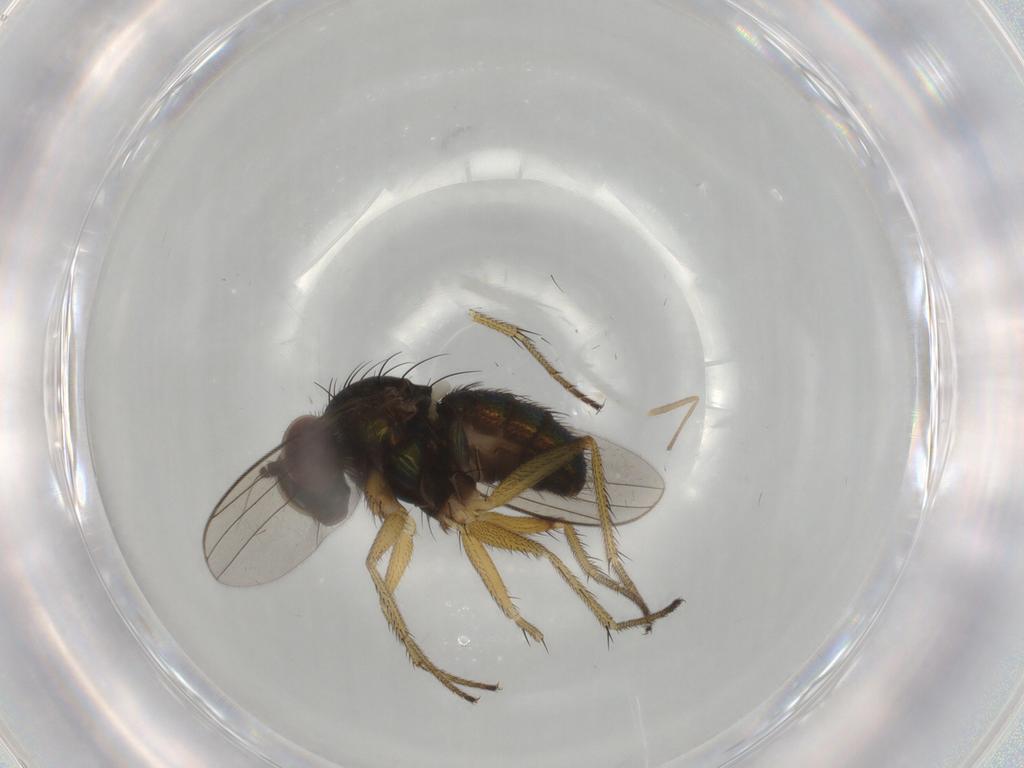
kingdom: Animalia
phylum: Arthropoda
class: Insecta
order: Diptera
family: Dolichopodidae
